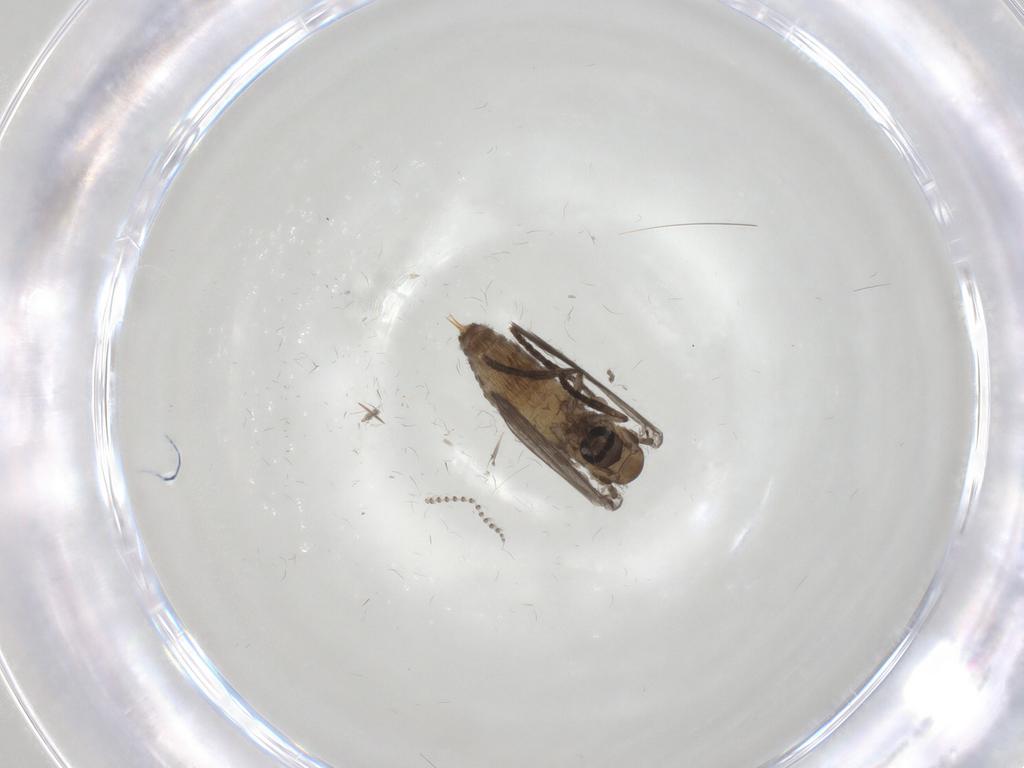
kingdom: Animalia
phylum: Arthropoda
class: Insecta
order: Diptera
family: Psychodidae
